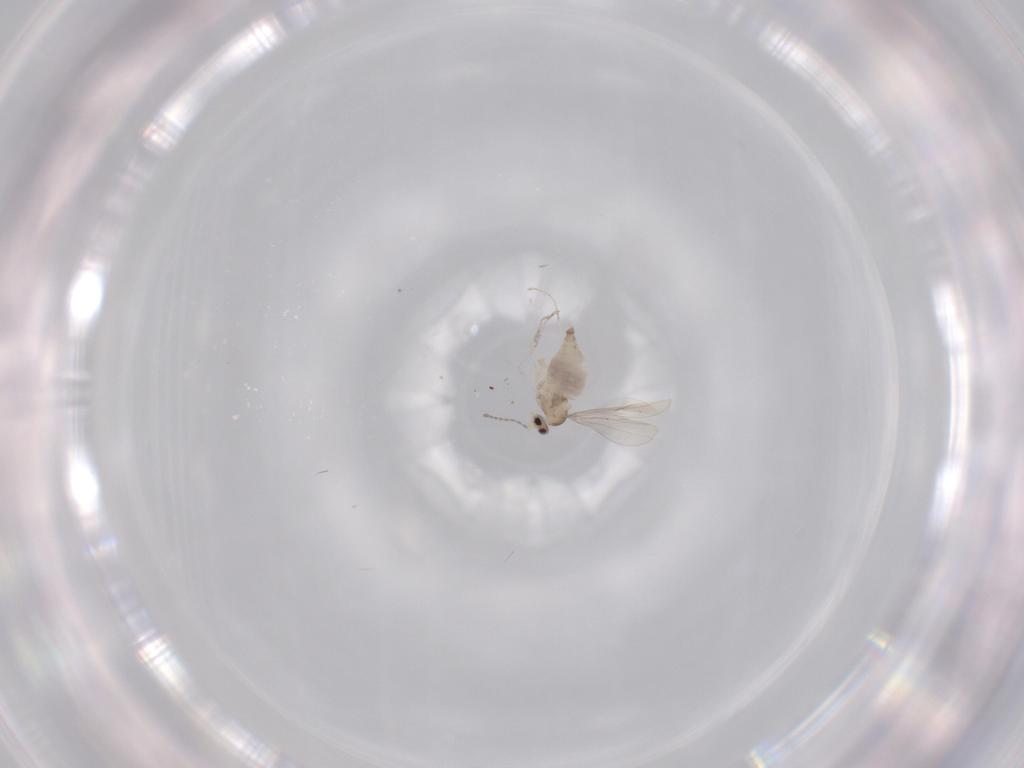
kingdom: Animalia
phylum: Arthropoda
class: Insecta
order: Diptera
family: Cecidomyiidae
